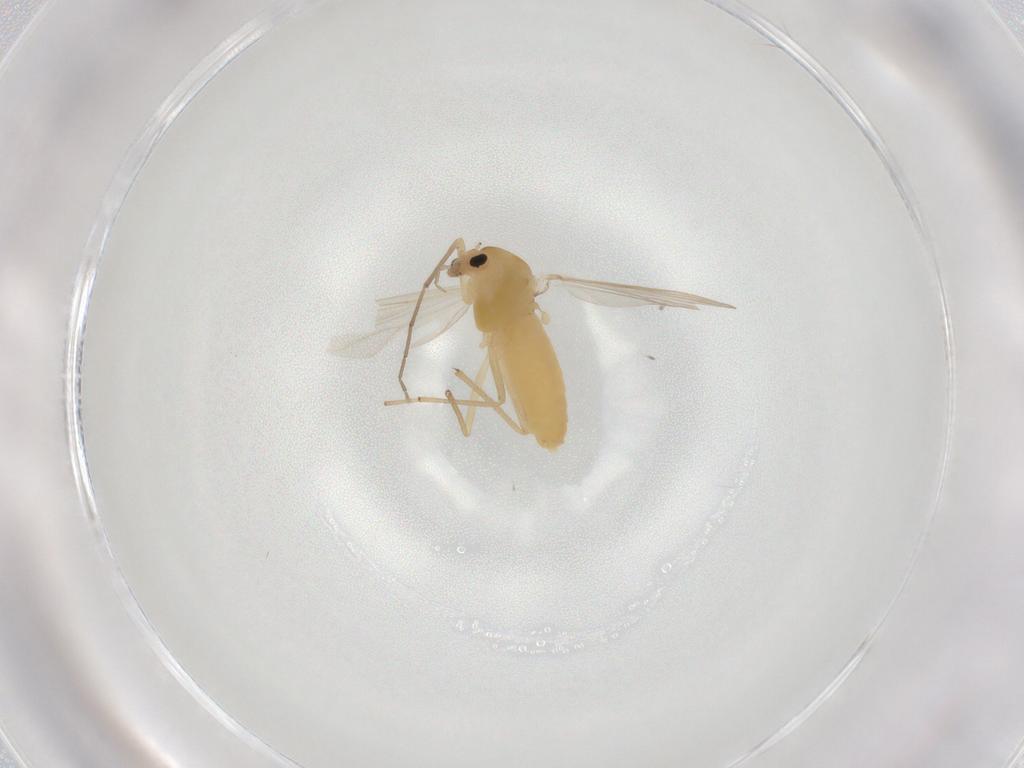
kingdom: Animalia
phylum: Arthropoda
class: Insecta
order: Diptera
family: Chironomidae
